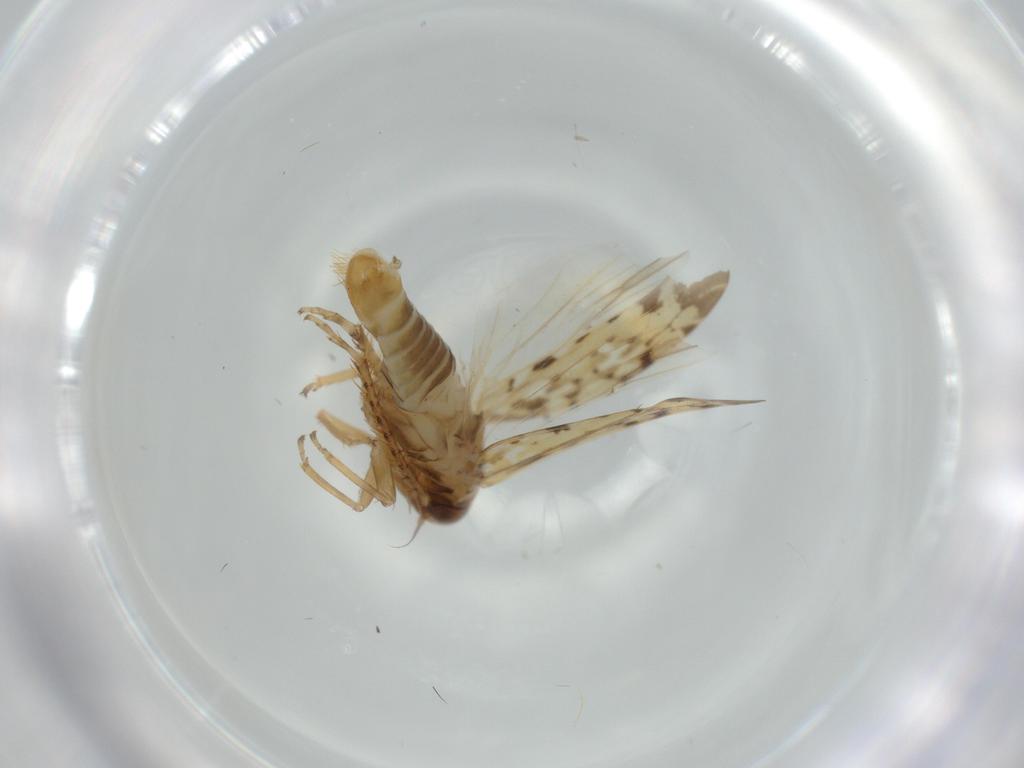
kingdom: Animalia
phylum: Arthropoda
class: Insecta
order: Hemiptera
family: Cicadellidae
